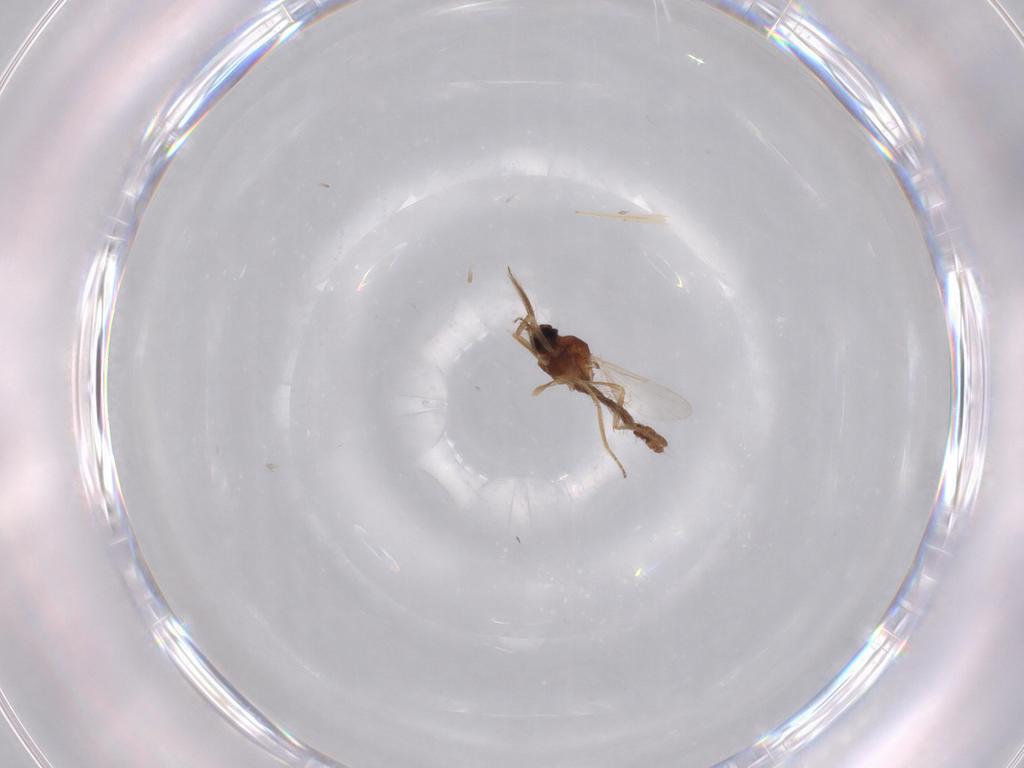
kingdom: Animalia
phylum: Arthropoda
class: Insecta
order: Diptera
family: Ceratopogonidae
